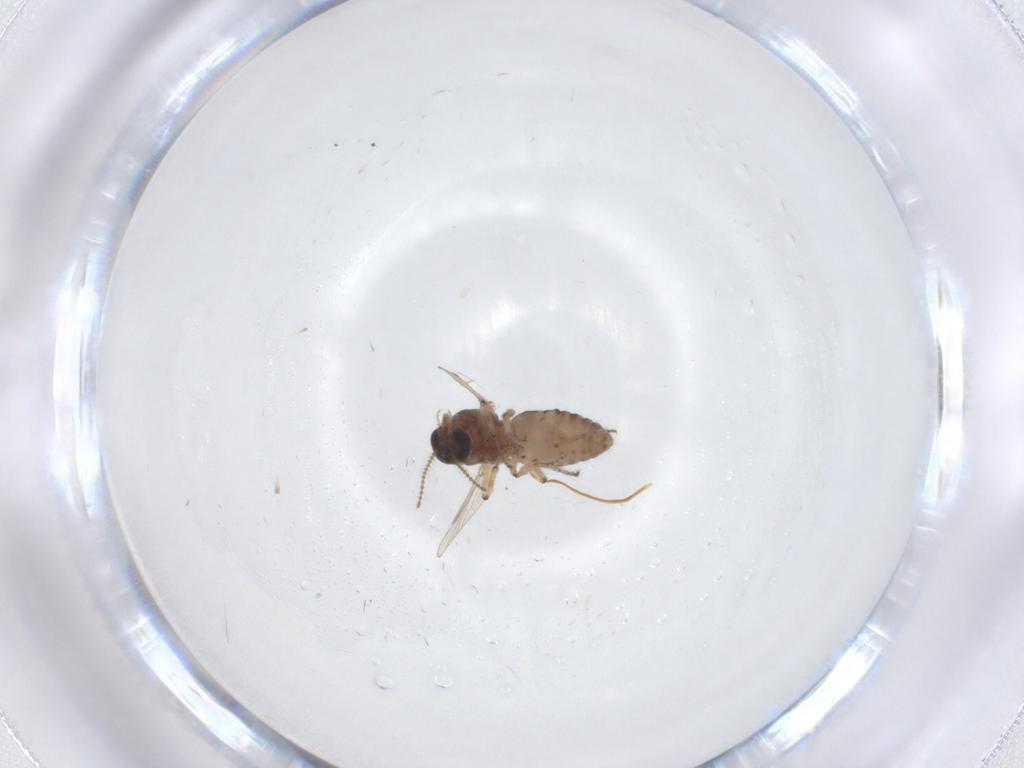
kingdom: Animalia
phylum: Arthropoda
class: Insecta
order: Diptera
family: Ceratopogonidae
